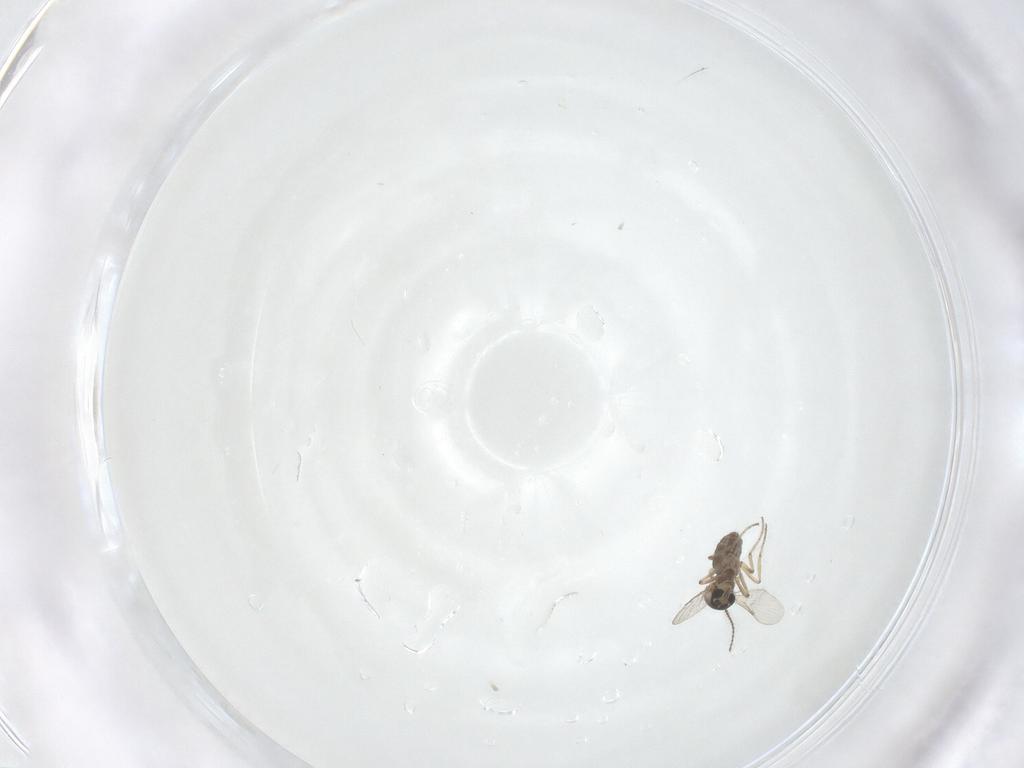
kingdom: Animalia
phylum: Arthropoda
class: Insecta
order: Diptera
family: Ceratopogonidae
